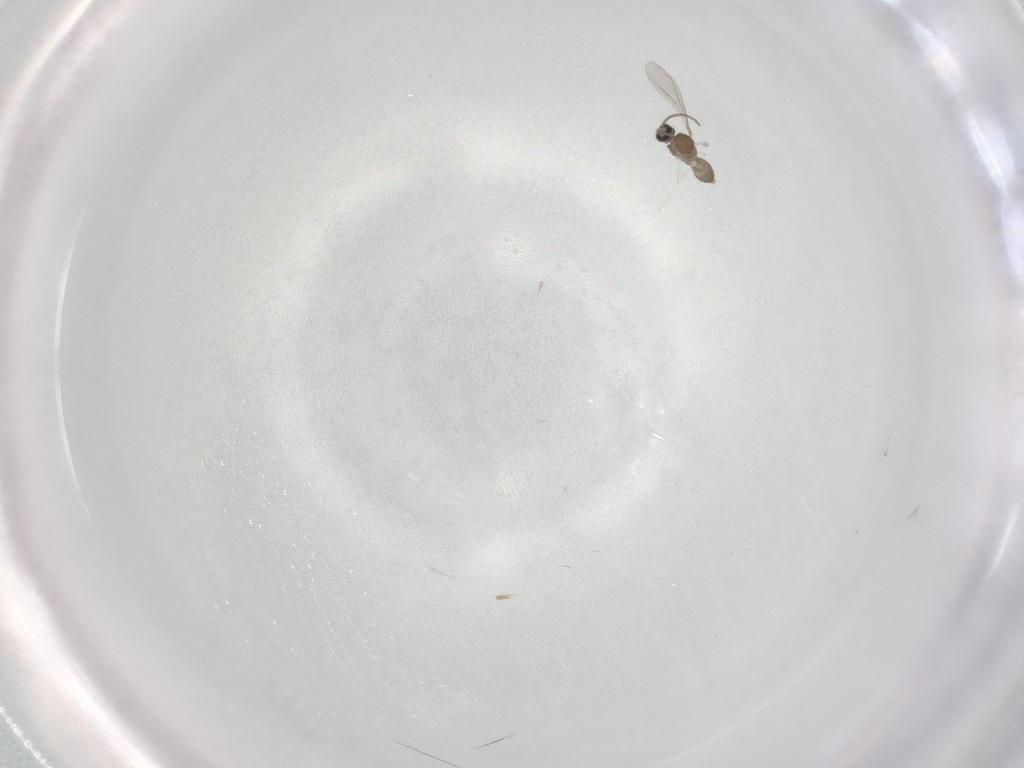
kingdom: Animalia
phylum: Arthropoda
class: Insecta
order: Diptera
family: Cecidomyiidae
